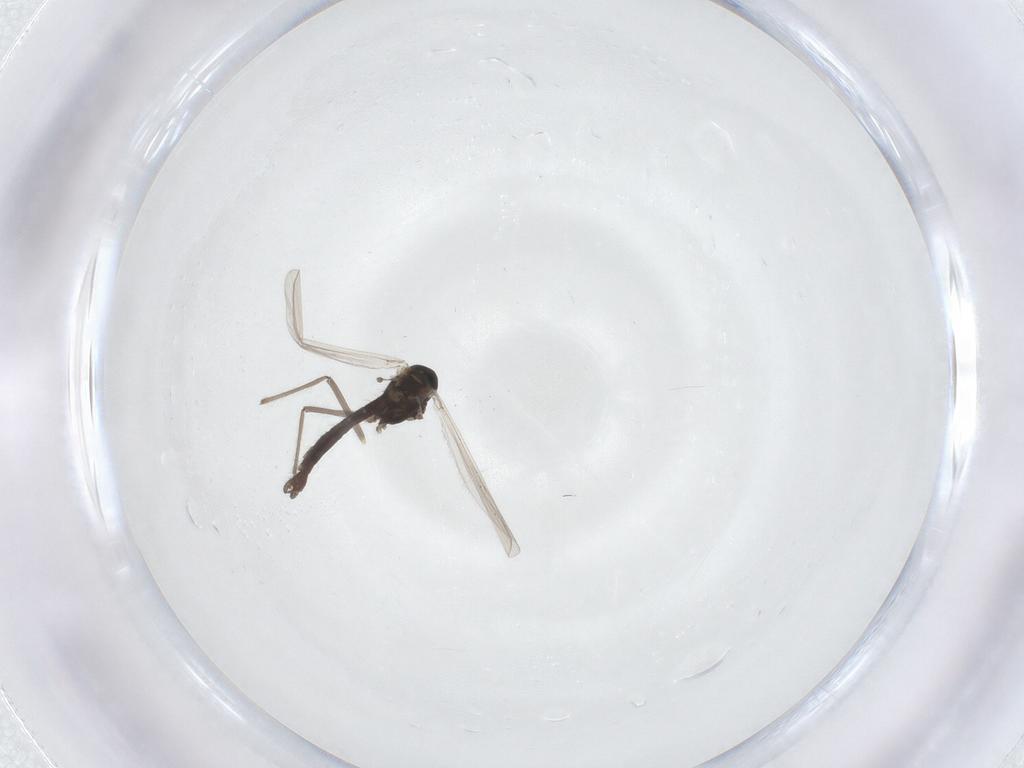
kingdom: Animalia
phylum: Arthropoda
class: Insecta
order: Diptera
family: Chironomidae
